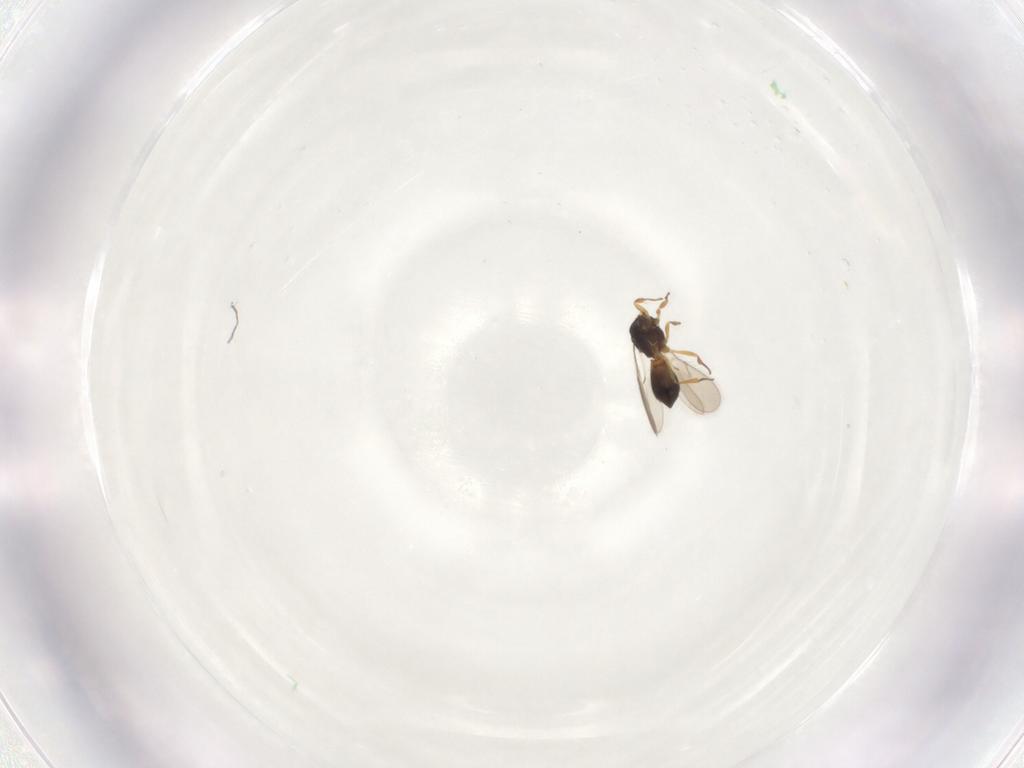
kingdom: Animalia
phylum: Arthropoda
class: Insecta
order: Hymenoptera
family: Scelionidae
